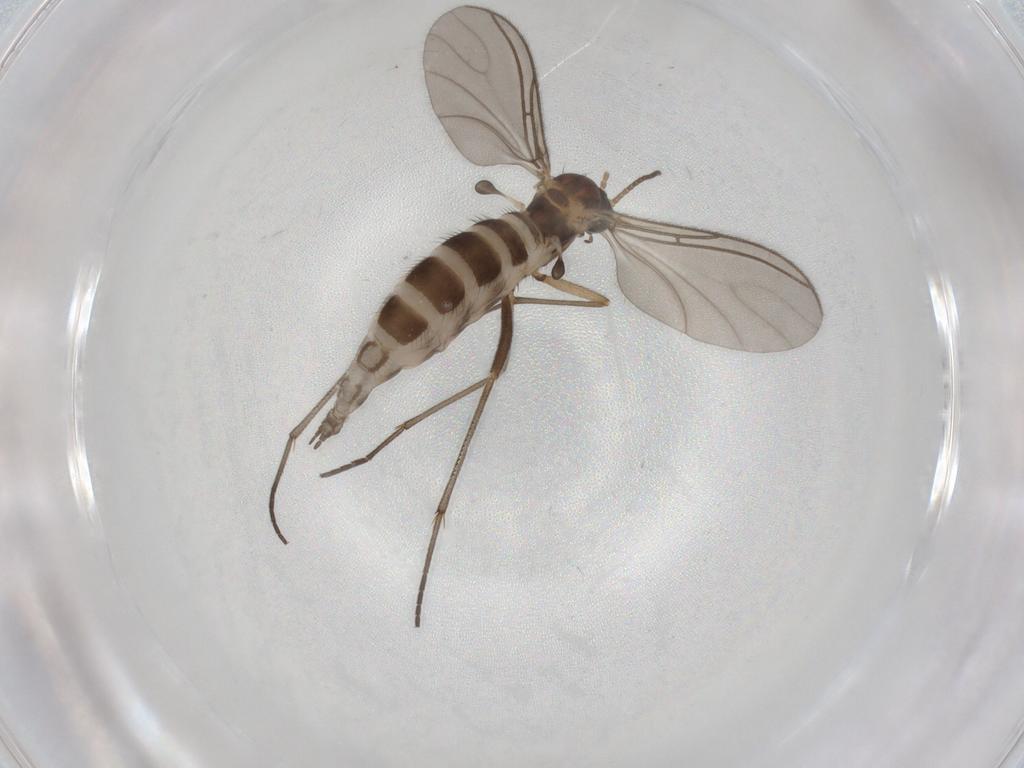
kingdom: Animalia
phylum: Arthropoda
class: Insecta
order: Diptera
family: Sciaridae
